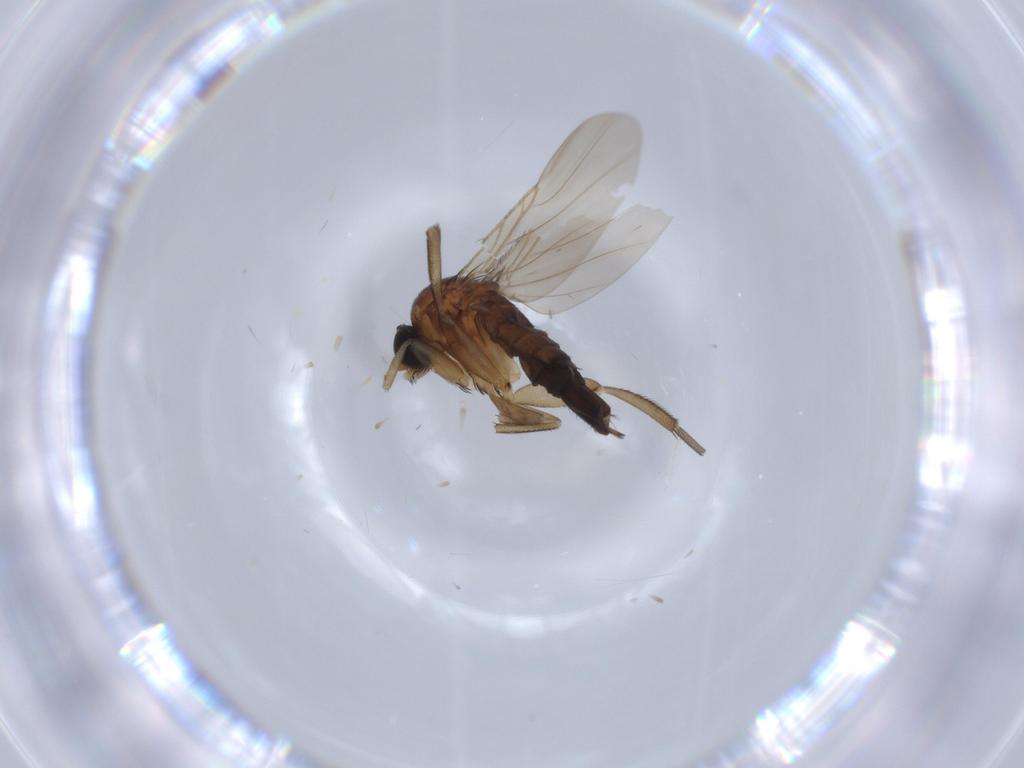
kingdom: Animalia
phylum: Arthropoda
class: Insecta
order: Diptera
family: Phoridae
